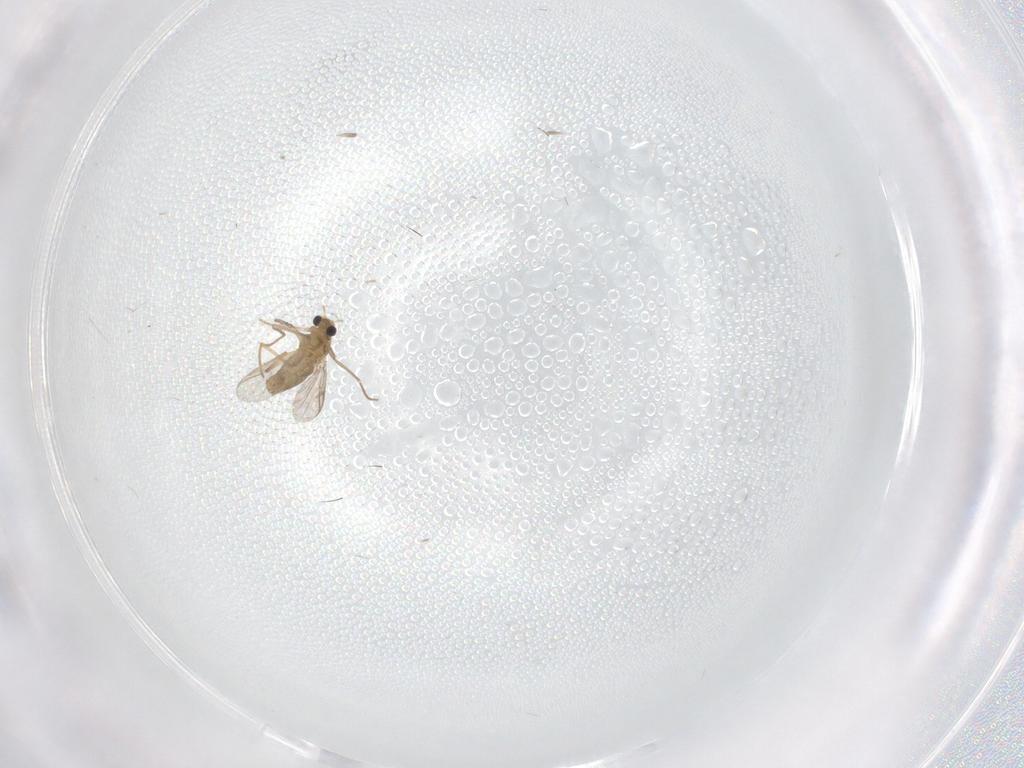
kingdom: Animalia
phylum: Arthropoda
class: Insecta
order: Diptera
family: Chironomidae
